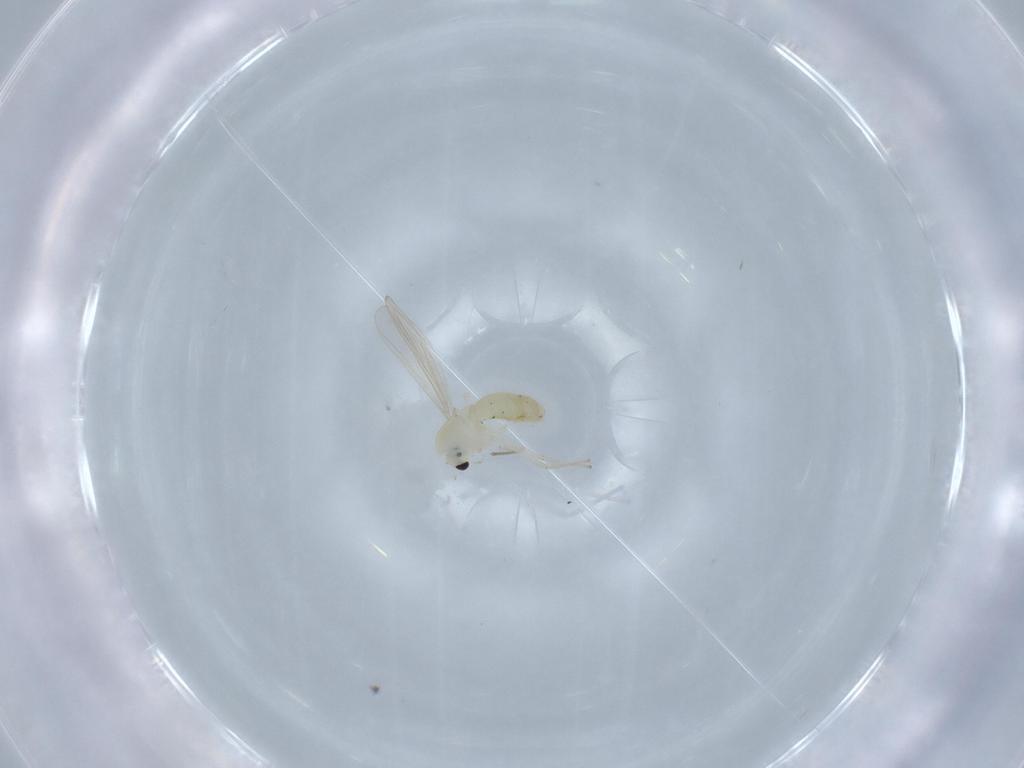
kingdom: Animalia
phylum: Arthropoda
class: Insecta
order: Diptera
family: Chironomidae
